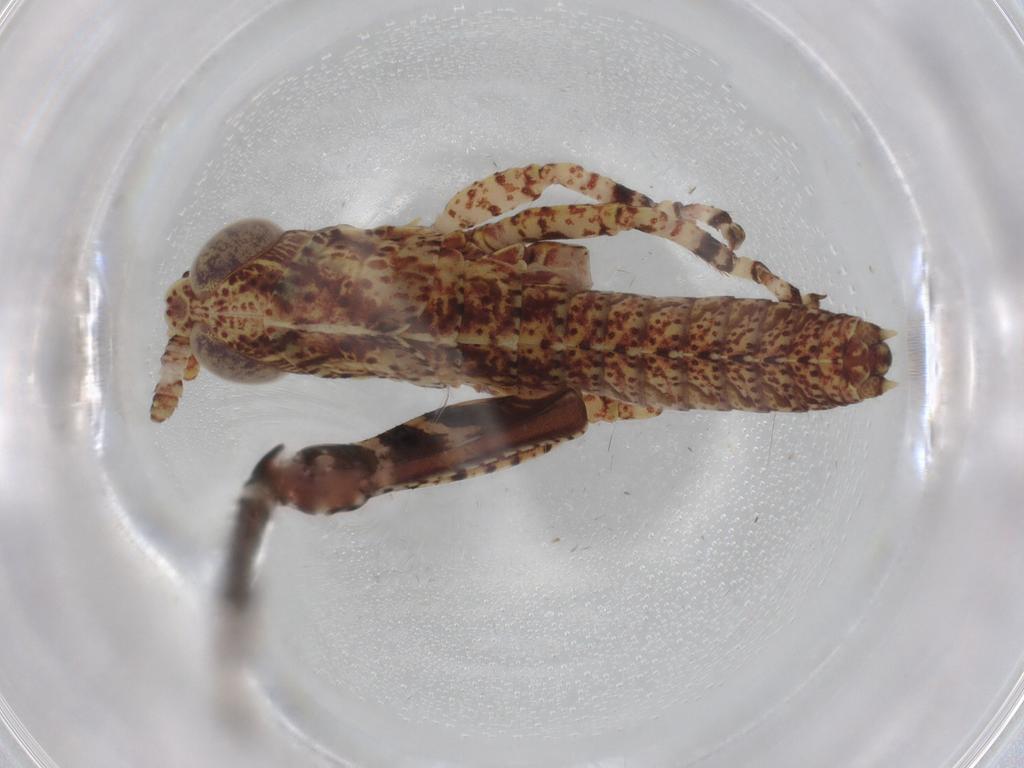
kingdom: Animalia
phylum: Arthropoda
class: Insecta
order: Orthoptera
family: Acrididae
